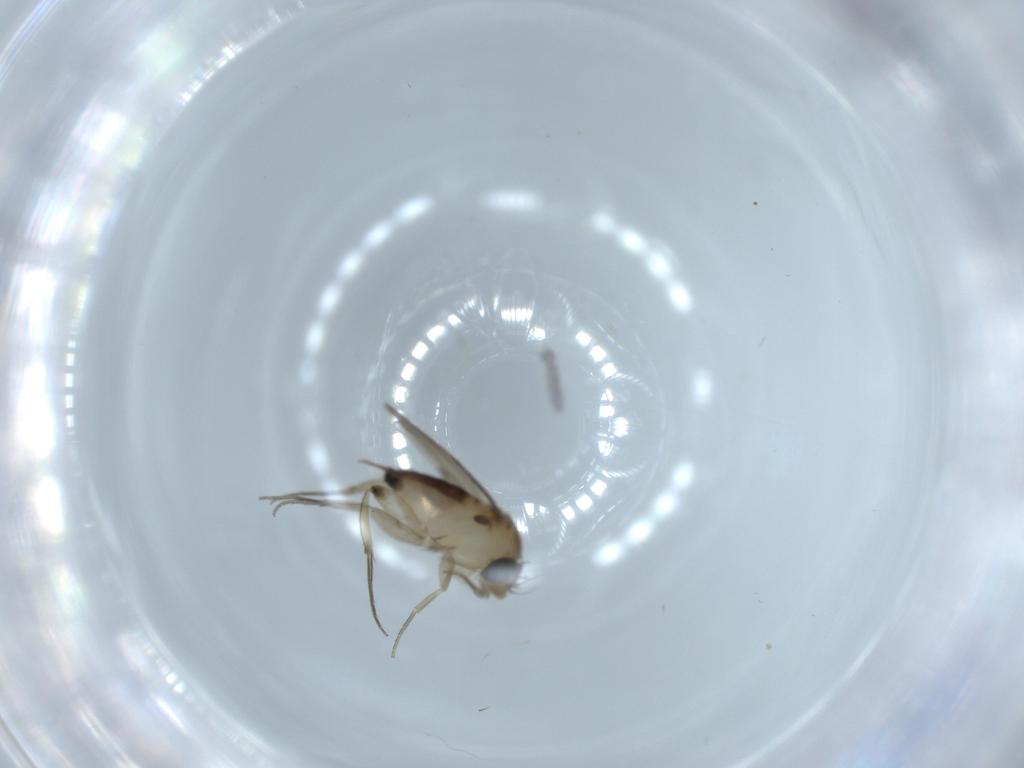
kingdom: Animalia
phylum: Arthropoda
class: Insecta
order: Diptera
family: Phoridae
